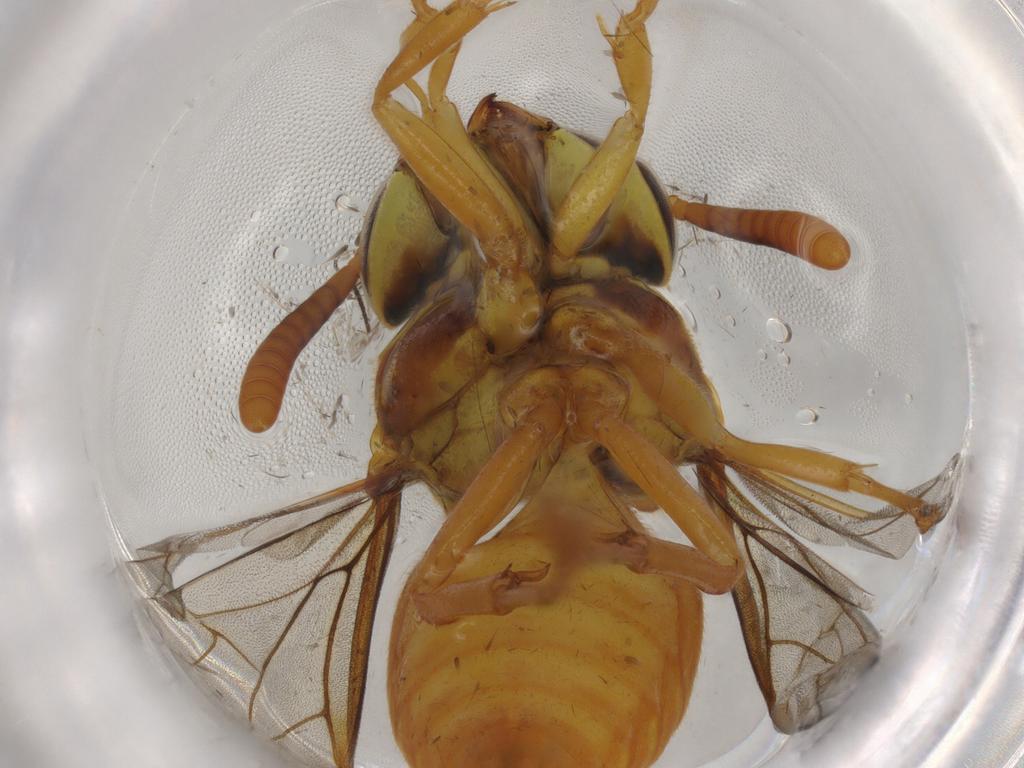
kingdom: Animalia
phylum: Arthropoda
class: Insecta
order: Hymenoptera
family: Vespidae
